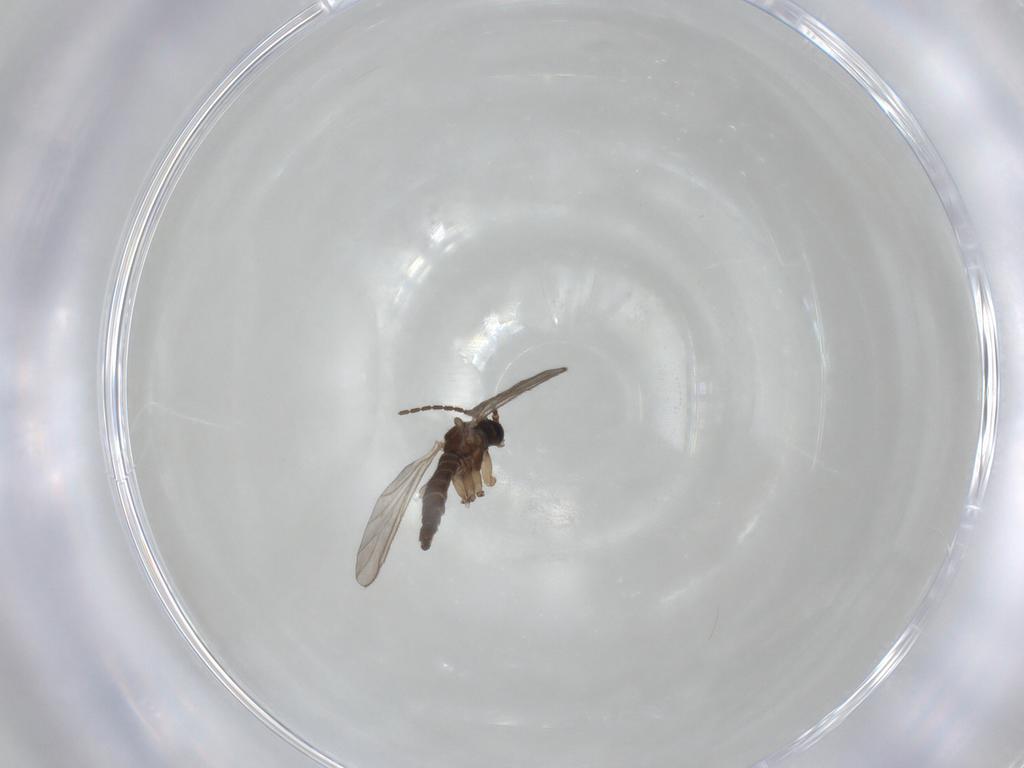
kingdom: Animalia
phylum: Arthropoda
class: Insecta
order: Diptera
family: Sciaridae
